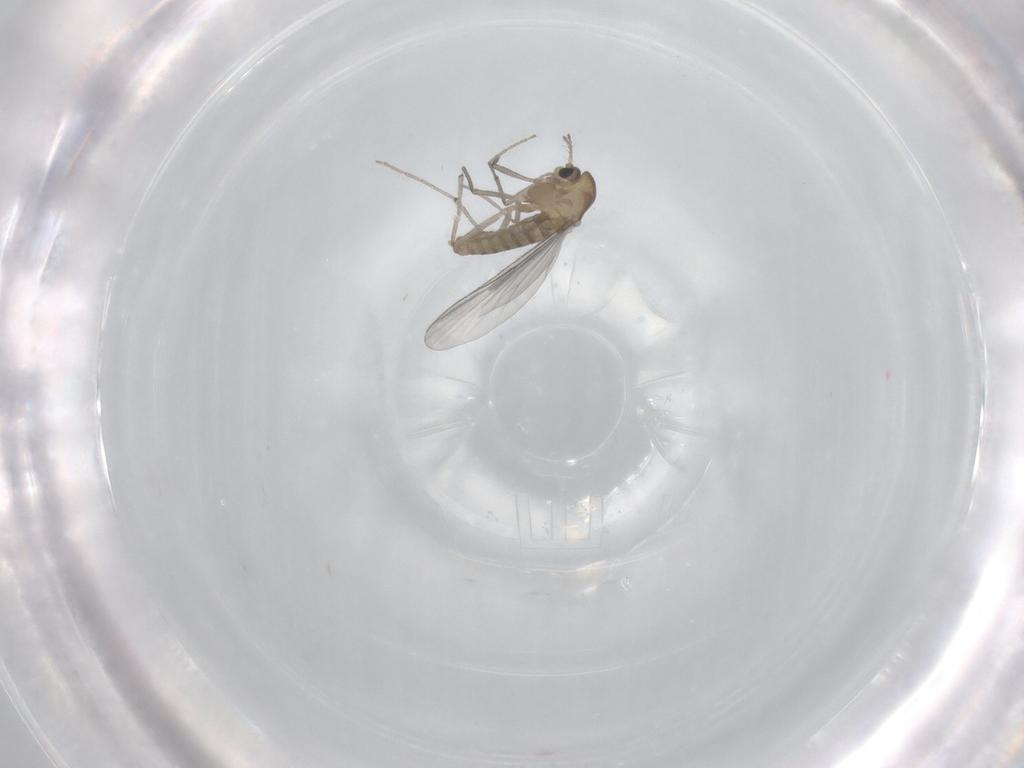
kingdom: Animalia
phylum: Arthropoda
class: Insecta
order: Diptera
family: Chironomidae
